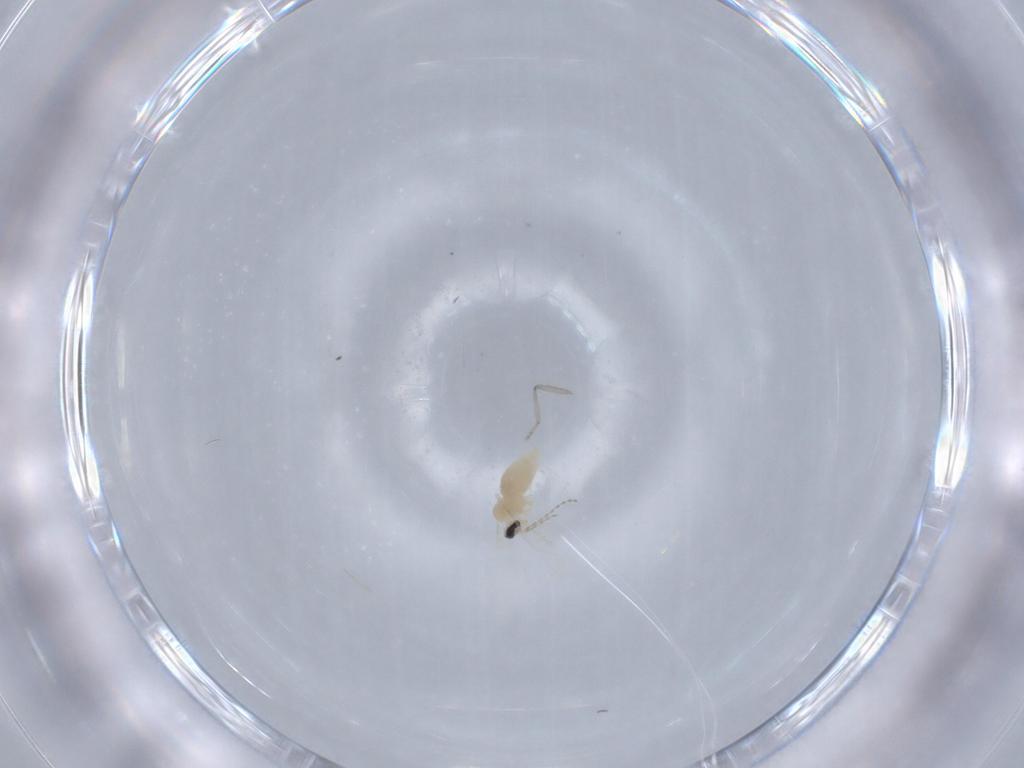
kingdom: Animalia
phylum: Arthropoda
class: Insecta
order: Diptera
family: Cecidomyiidae
